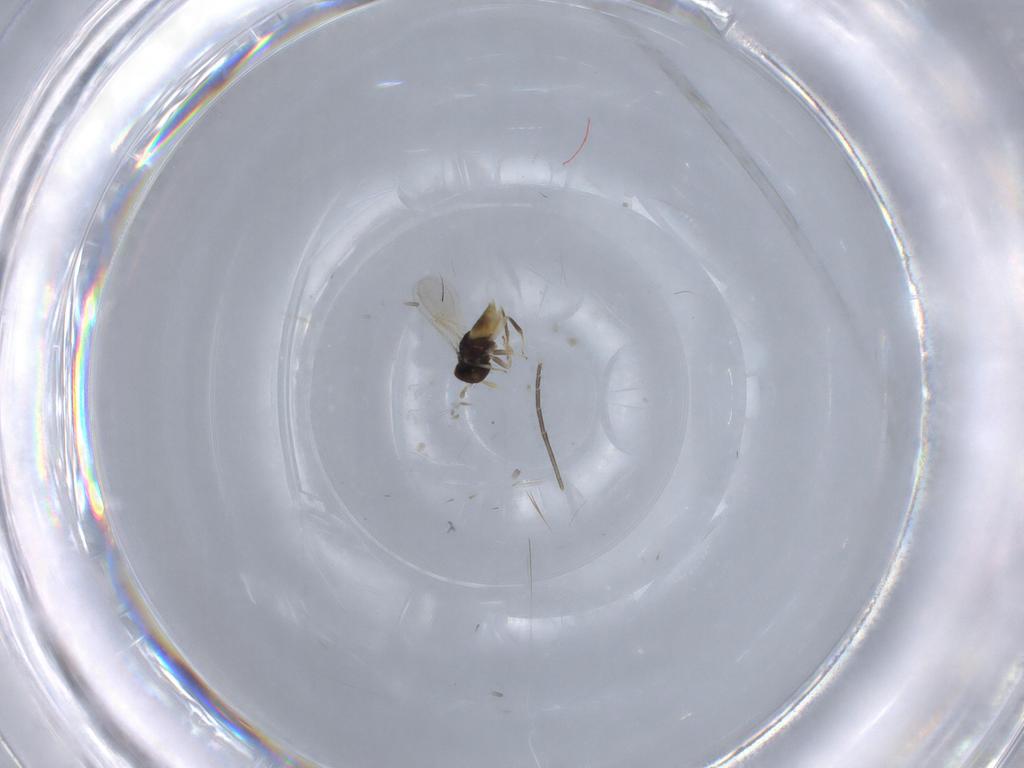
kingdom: Animalia
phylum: Arthropoda
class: Insecta
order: Hymenoptera
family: Aphelinidae
